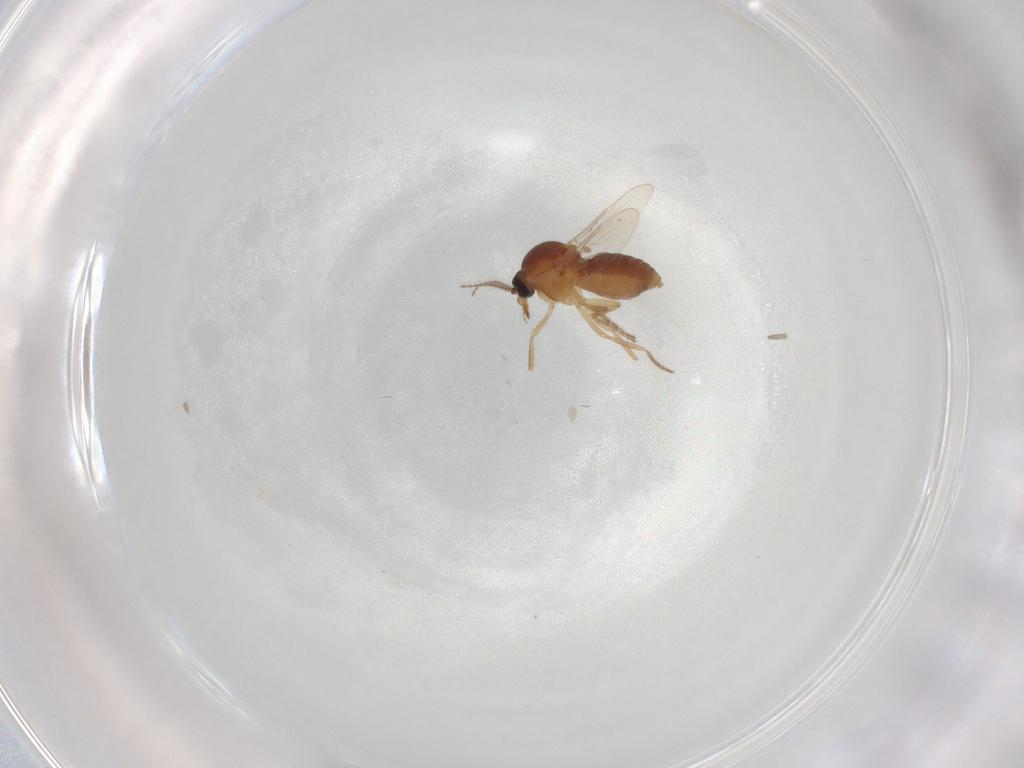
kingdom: Animalia
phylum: Arthropoda
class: Insecta
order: Diptera
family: Ceratopogonidae
